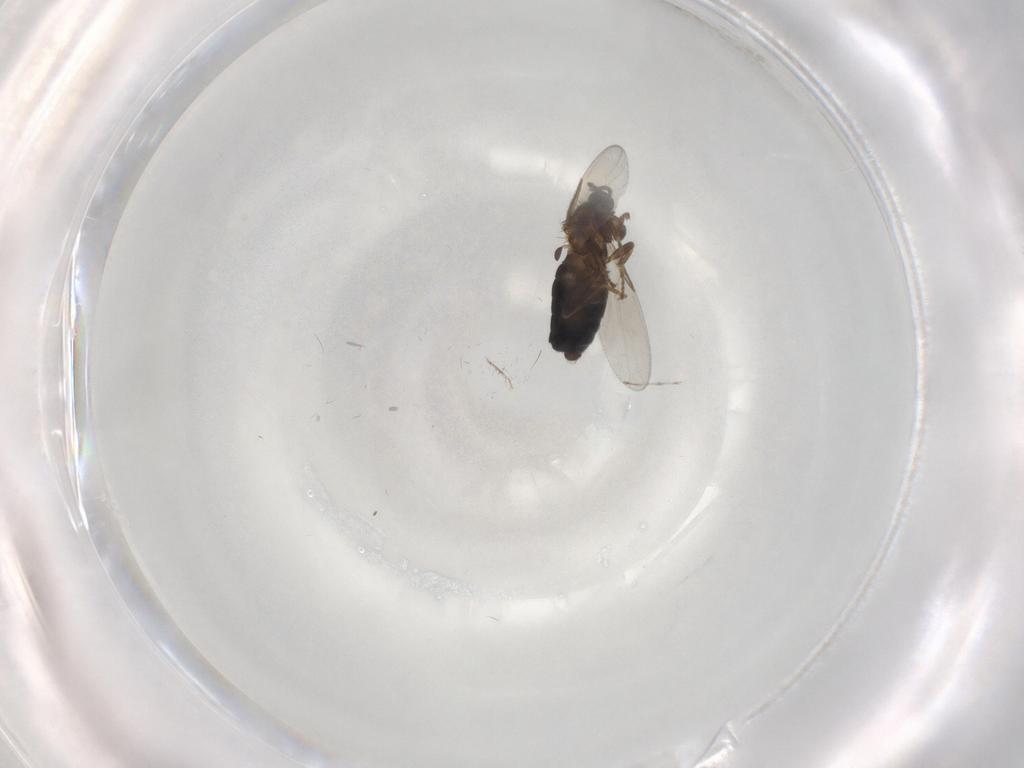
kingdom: Animalia
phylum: Arthropoda
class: Insecta
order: Diptera
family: Scatopsidae
